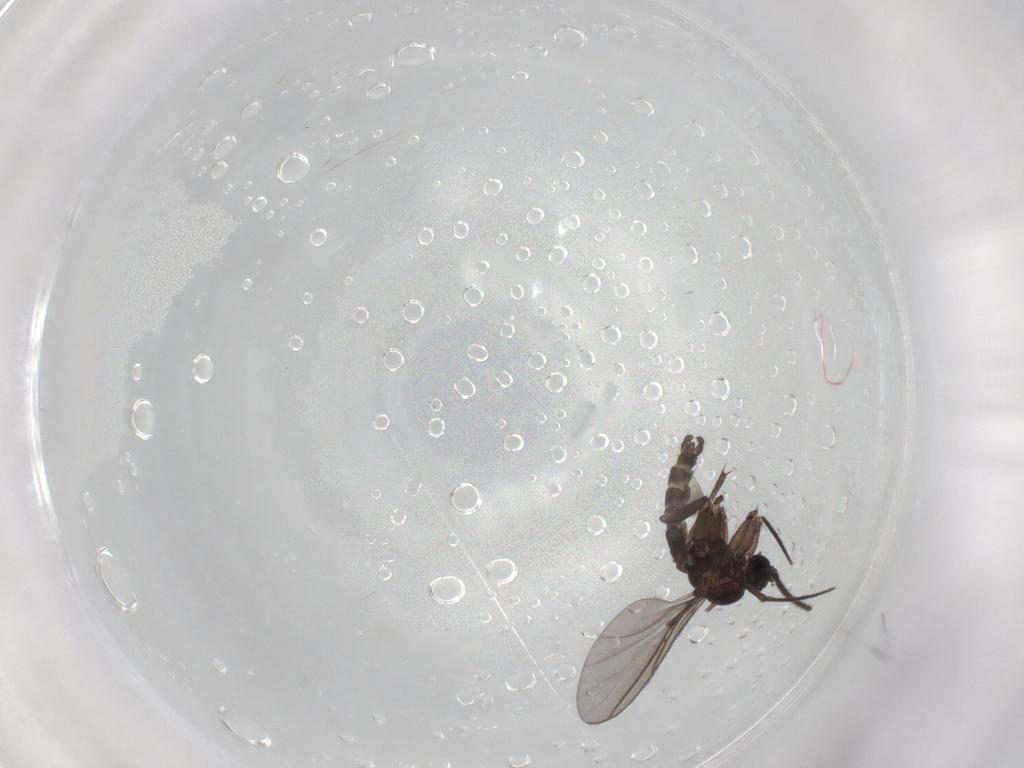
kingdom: Animalia
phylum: Arthropoda
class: Insecta
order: Diptera
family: Sciaridae
